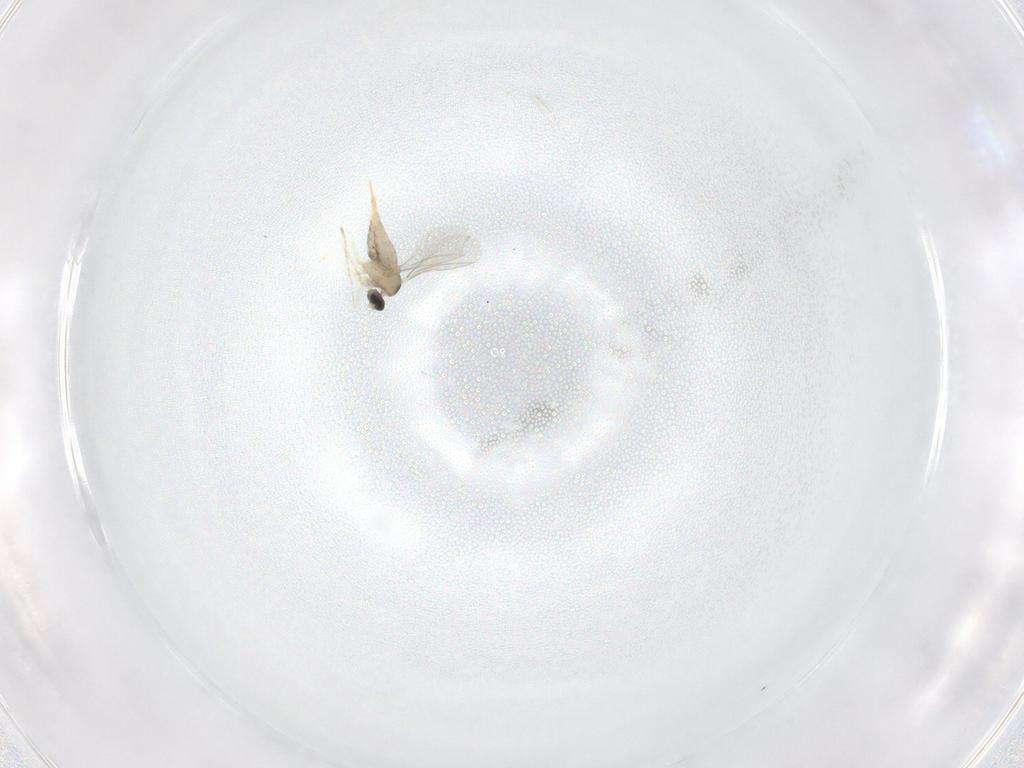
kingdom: Animalia
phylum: Arthropoda
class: Insecta
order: Diptera
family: Cecidomyiidae
